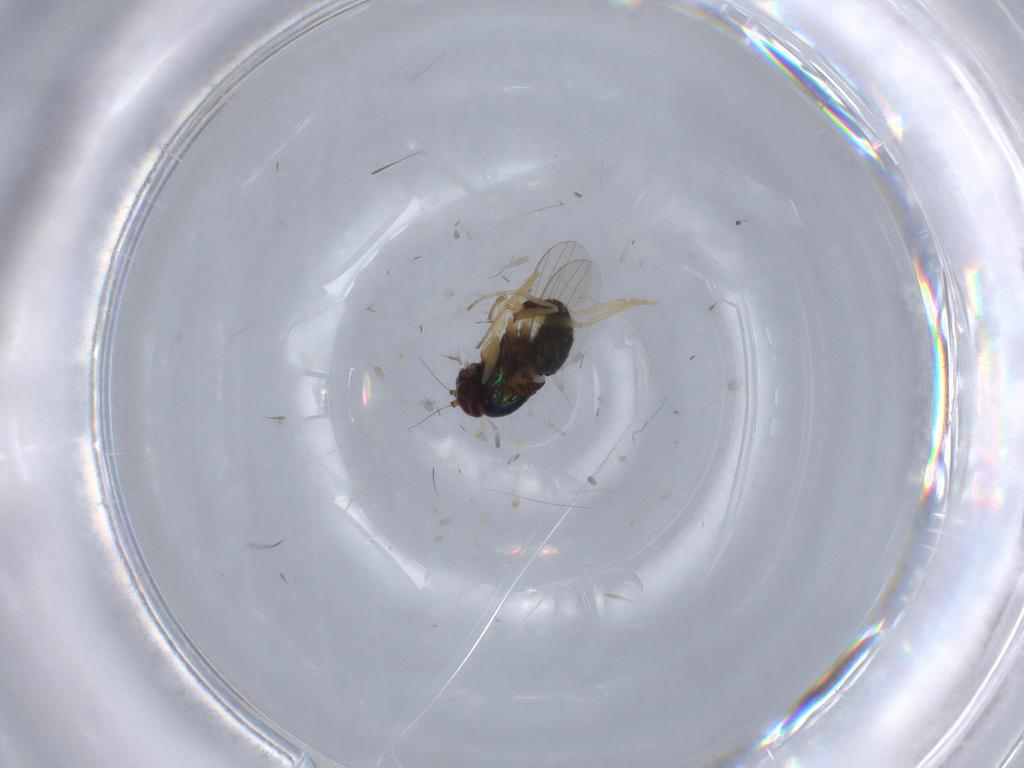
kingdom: Animalia
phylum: Arthropoda
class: Insecta
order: Diptera
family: Dolichopodidae
